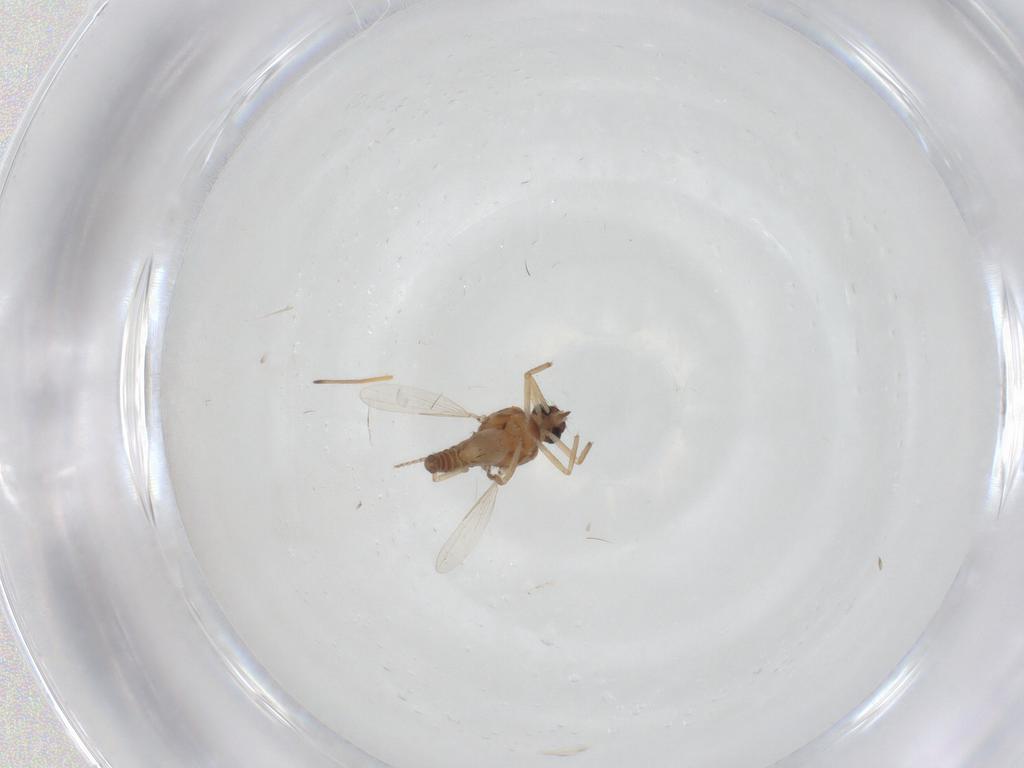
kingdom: Animalia
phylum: Arthropoda
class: Insecta
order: Diptera
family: Ceratopogonidae
